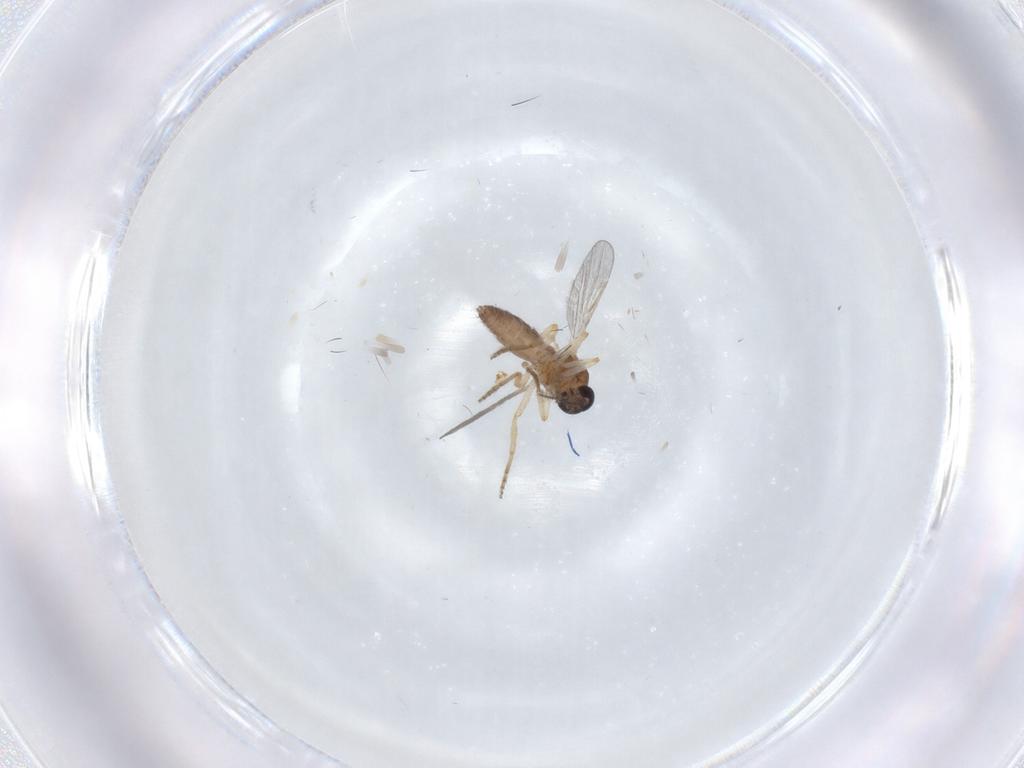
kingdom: Animalia
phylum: Arthropoda
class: Insecta
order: Diptera
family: Ceratopogonidae
